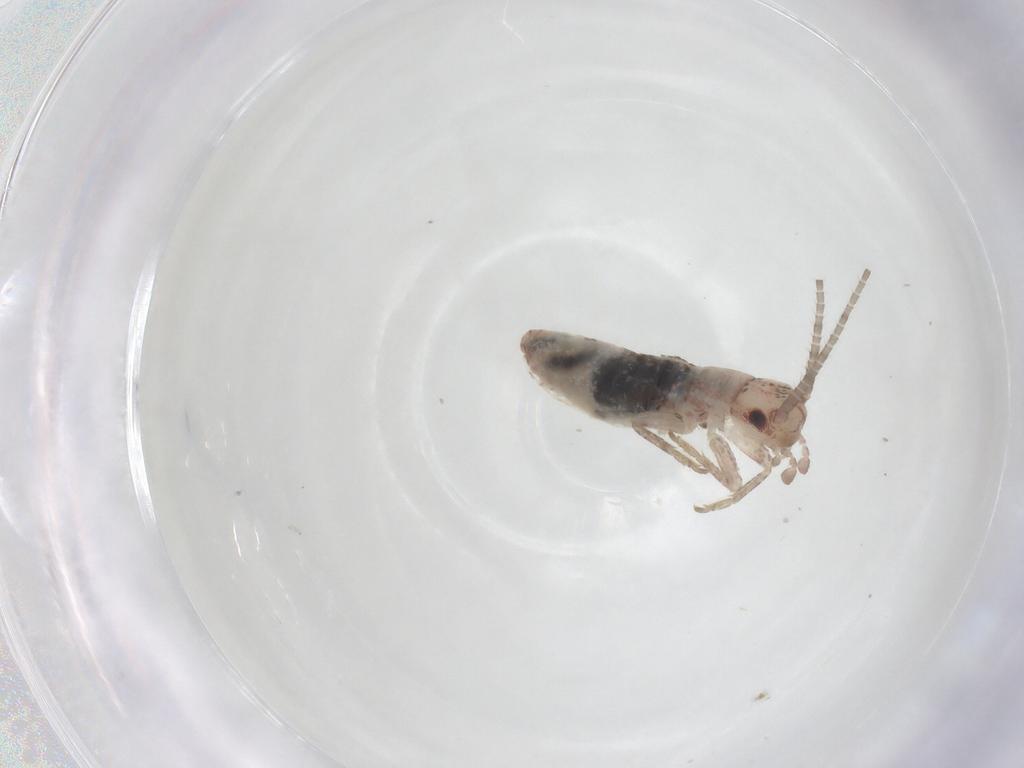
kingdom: Animalia
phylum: Arthropoda
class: Insecta
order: Orthoptera
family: Mogoplistidae
